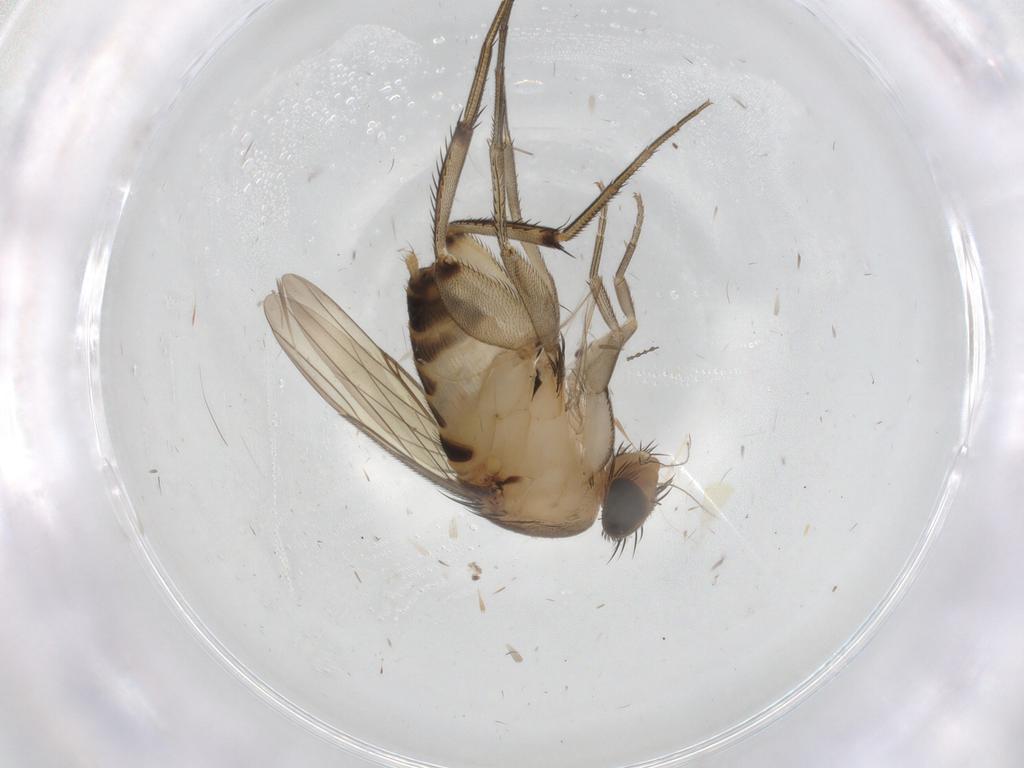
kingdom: Animalia
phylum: Arthropoda
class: Insecta
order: Diptera
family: Phoridae
